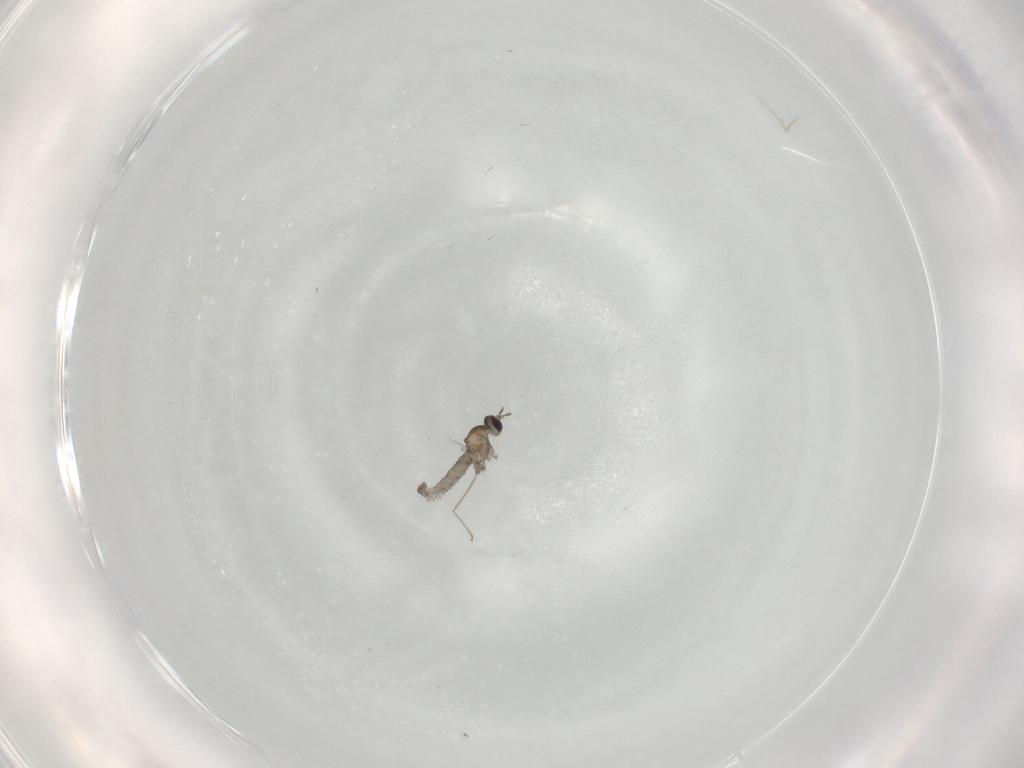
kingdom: Animalia
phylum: Arthropoda
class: Insecta
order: Diptera
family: Cecidomyiidae
